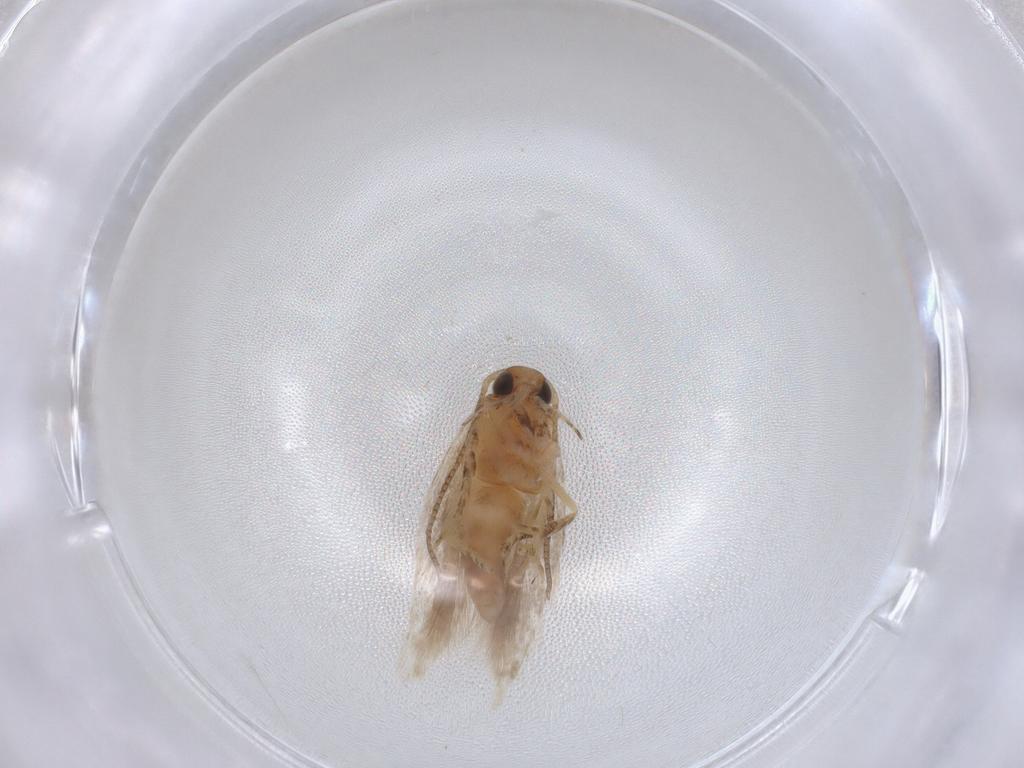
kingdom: Animalia
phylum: Arthropoda
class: Insecta
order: Lepidoptera
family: Gelechiidae
